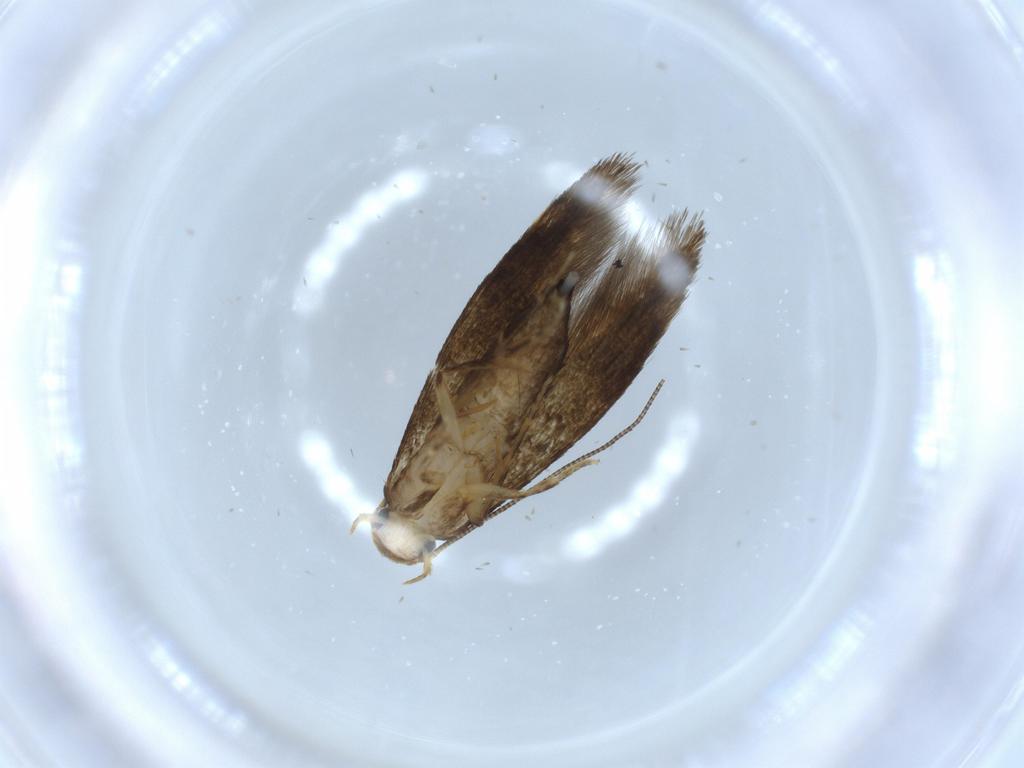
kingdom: Animalia
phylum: Arthropoda
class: Insecta
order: Lepidoptera
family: Tineidae
